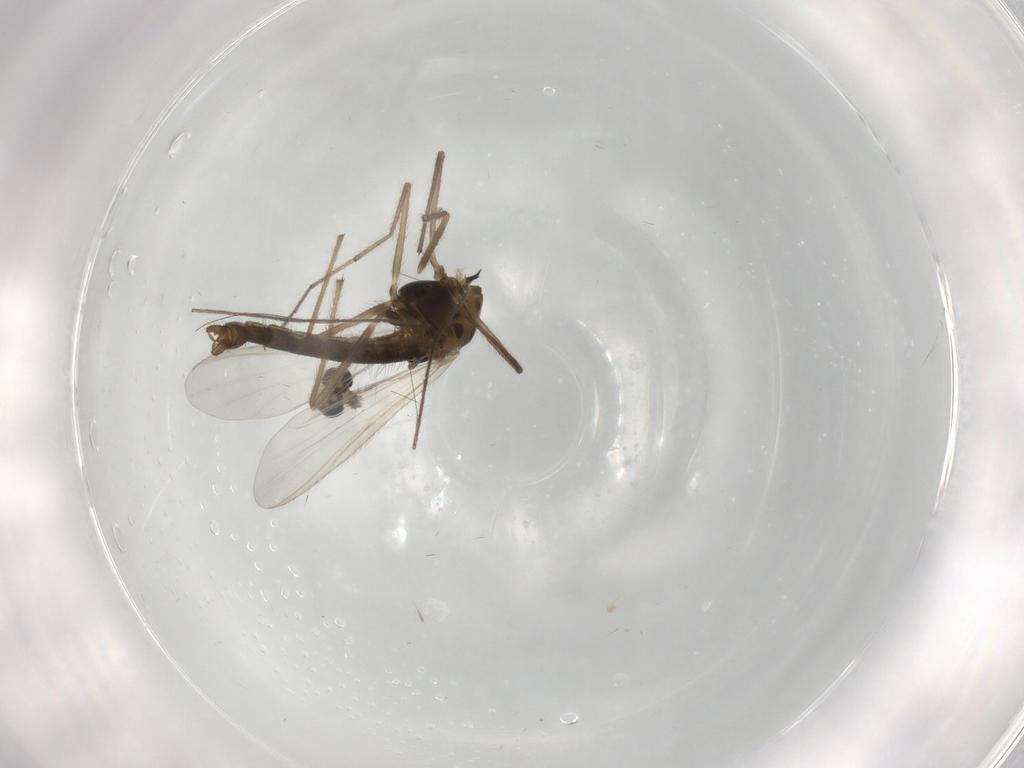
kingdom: Animalia
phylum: Arthropoda
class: Insecta
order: Diptera
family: Chironomidae
